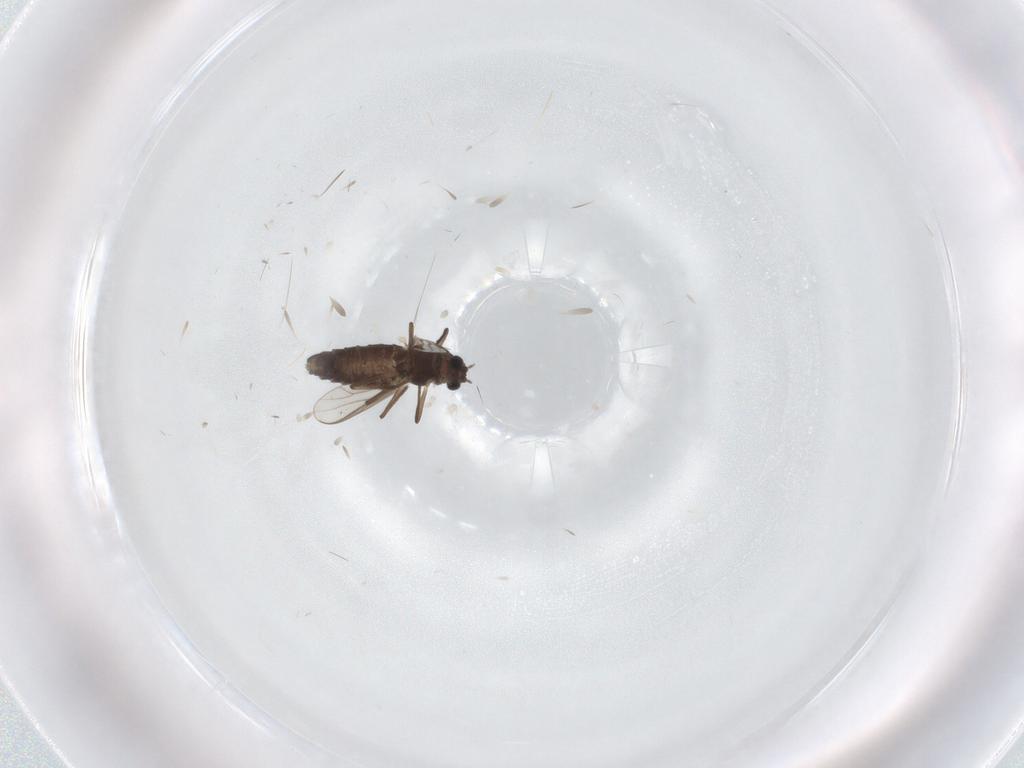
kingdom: Animalia
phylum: Arthropoda
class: Insecta
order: Diptera
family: Chironomidae
